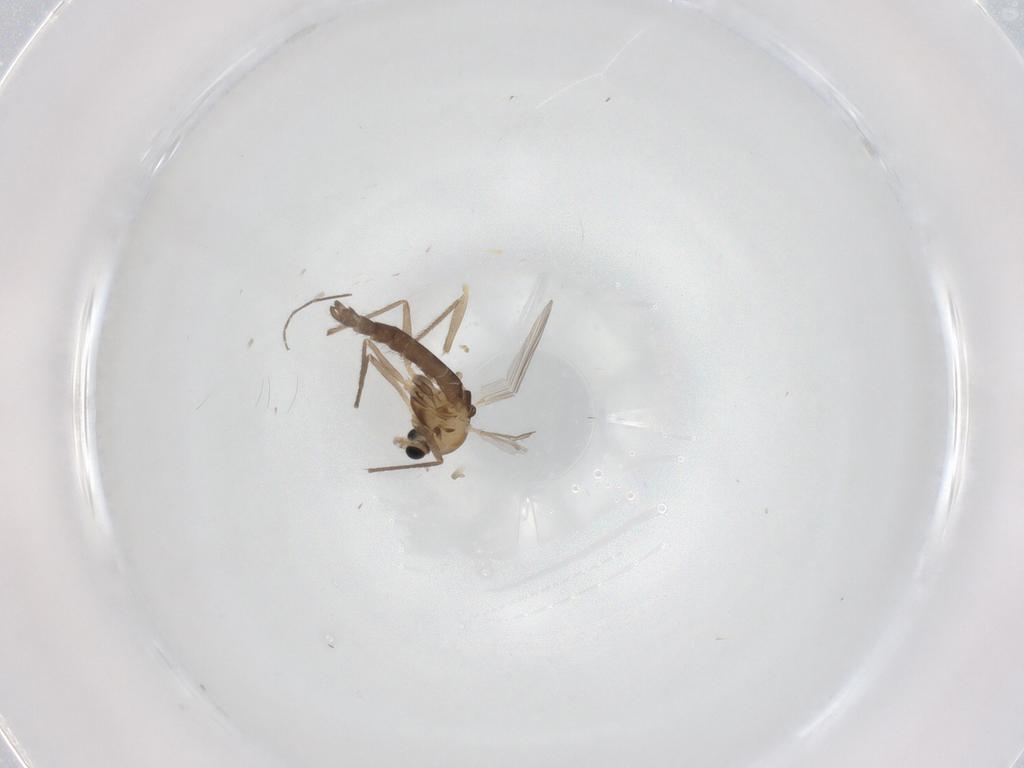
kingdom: Animalia
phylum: Arthropoda
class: Insecta
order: Diptera
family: Chironomidae
